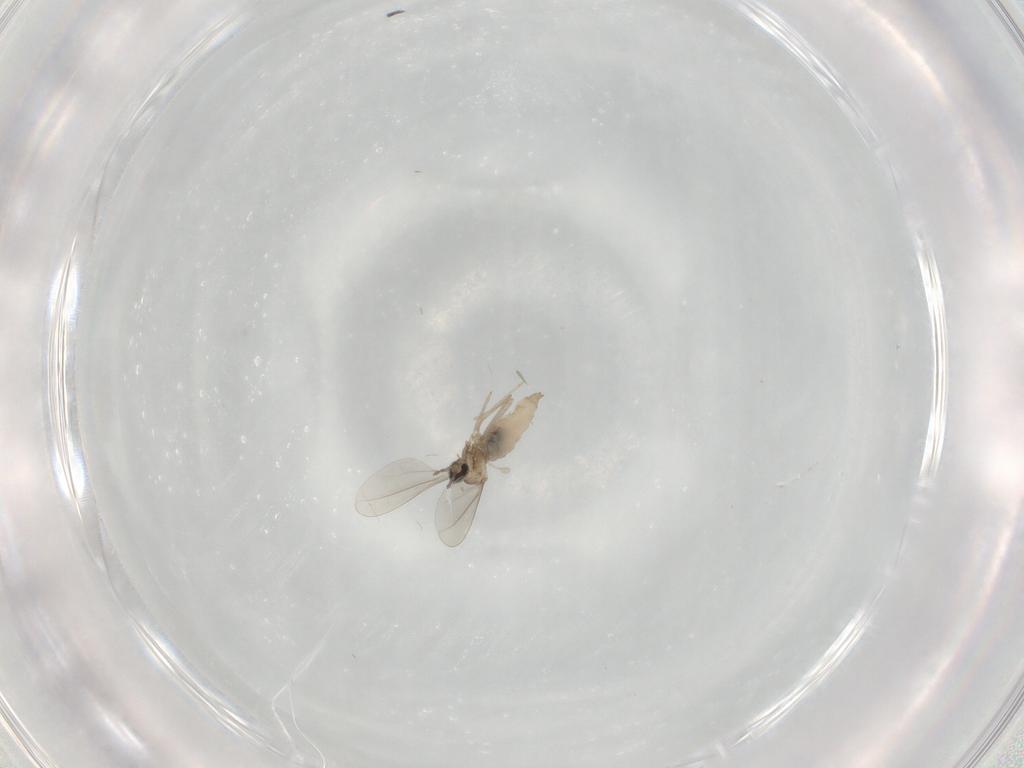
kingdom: Animalia
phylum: Arthropoda
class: Insecta
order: Diptera
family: Cecidomyiidae
